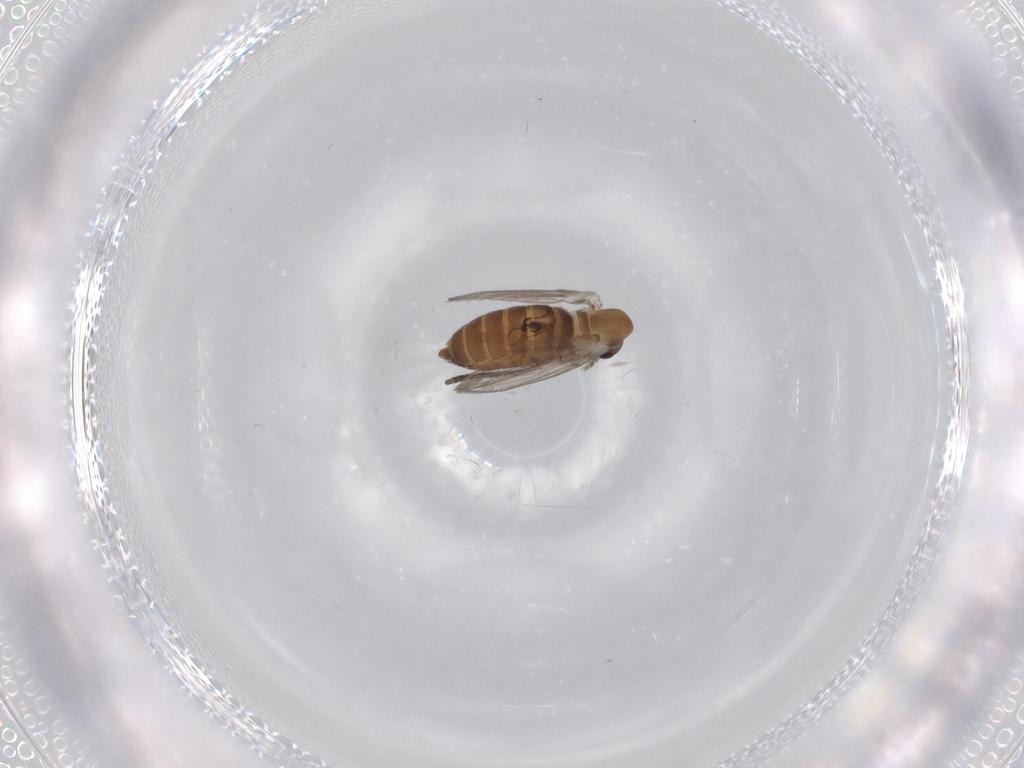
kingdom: Animalia
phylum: Arthropoda
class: Insecta
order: Diptera
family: Psychodidae
